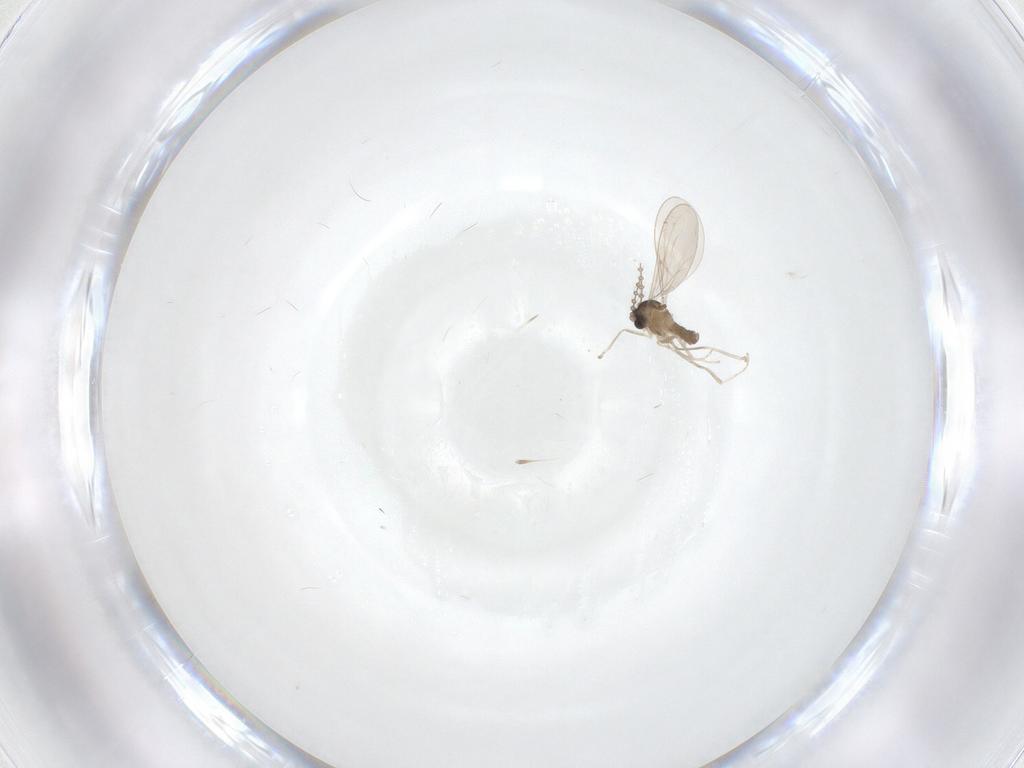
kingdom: Animalia
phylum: Arthropoda
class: Insecta
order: Diptera
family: Cecidomyiidae
